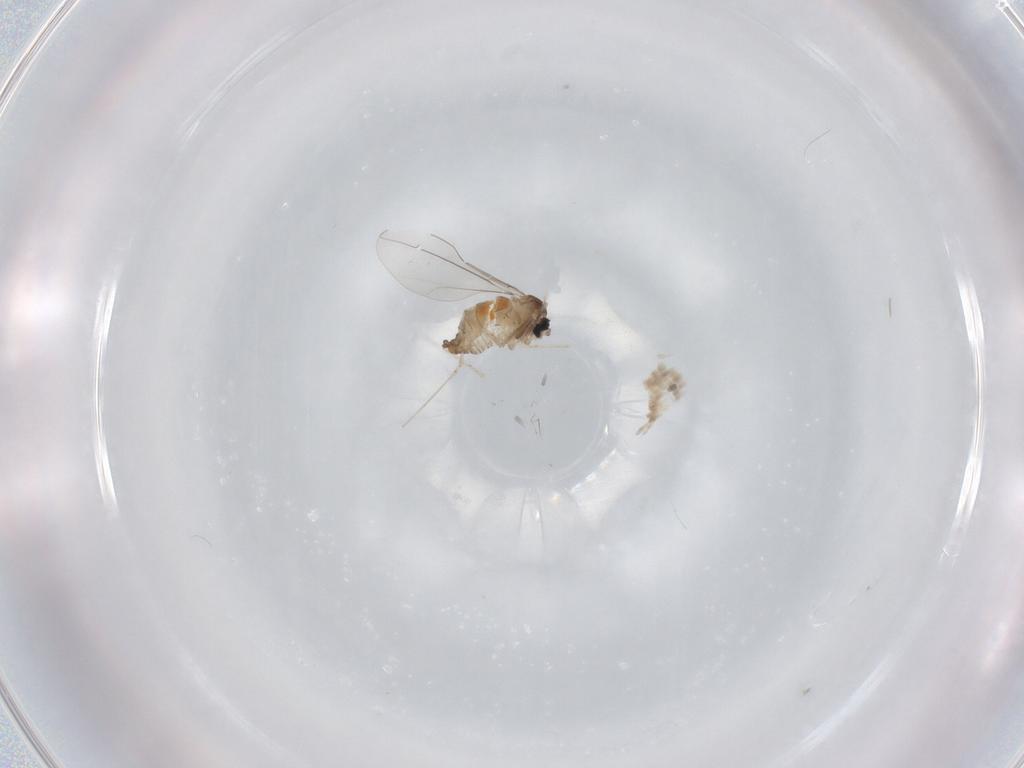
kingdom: Animalia
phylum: Arthropoda
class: Insecta
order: Diptera
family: Cecidomyiidae
